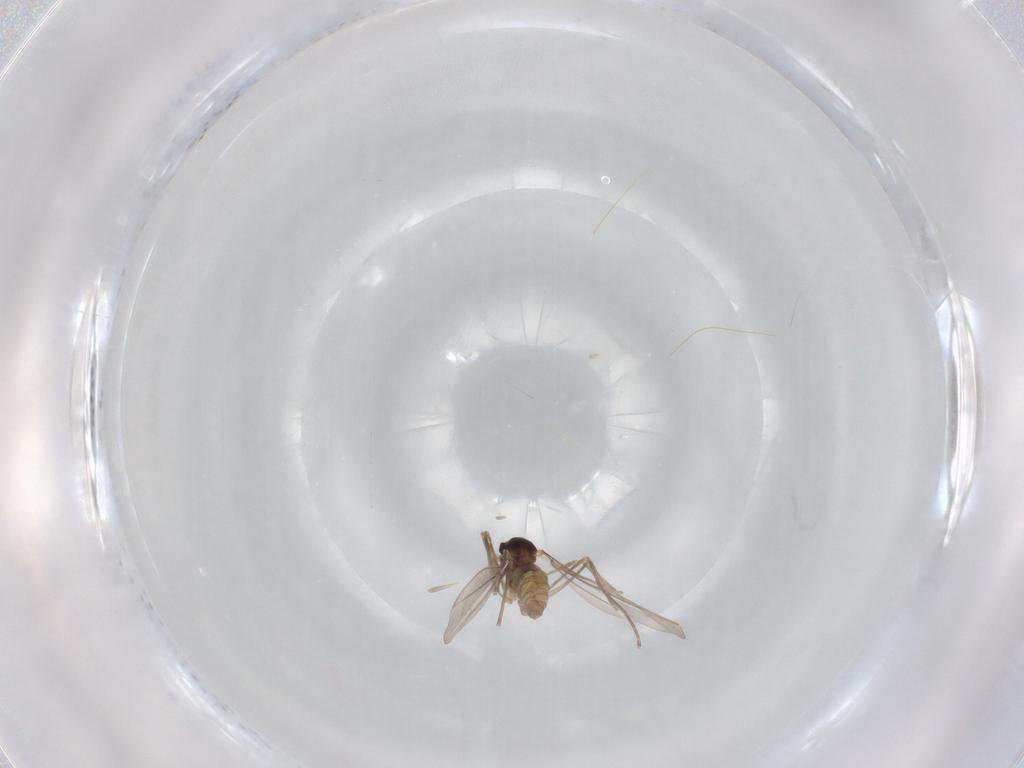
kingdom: Animalia
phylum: Arthropoda
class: Insecta
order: Diptera
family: Cecidomyiidae
